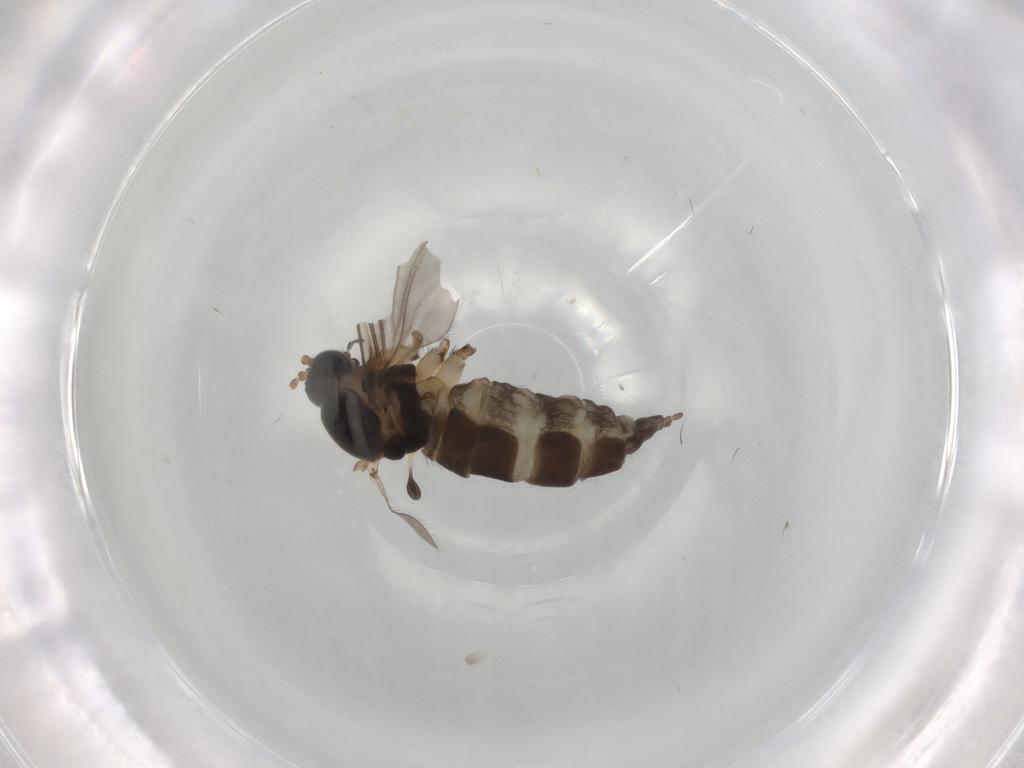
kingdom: Animalia
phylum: Arthropoda
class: Insecta
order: Diptera
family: Sciaridae
